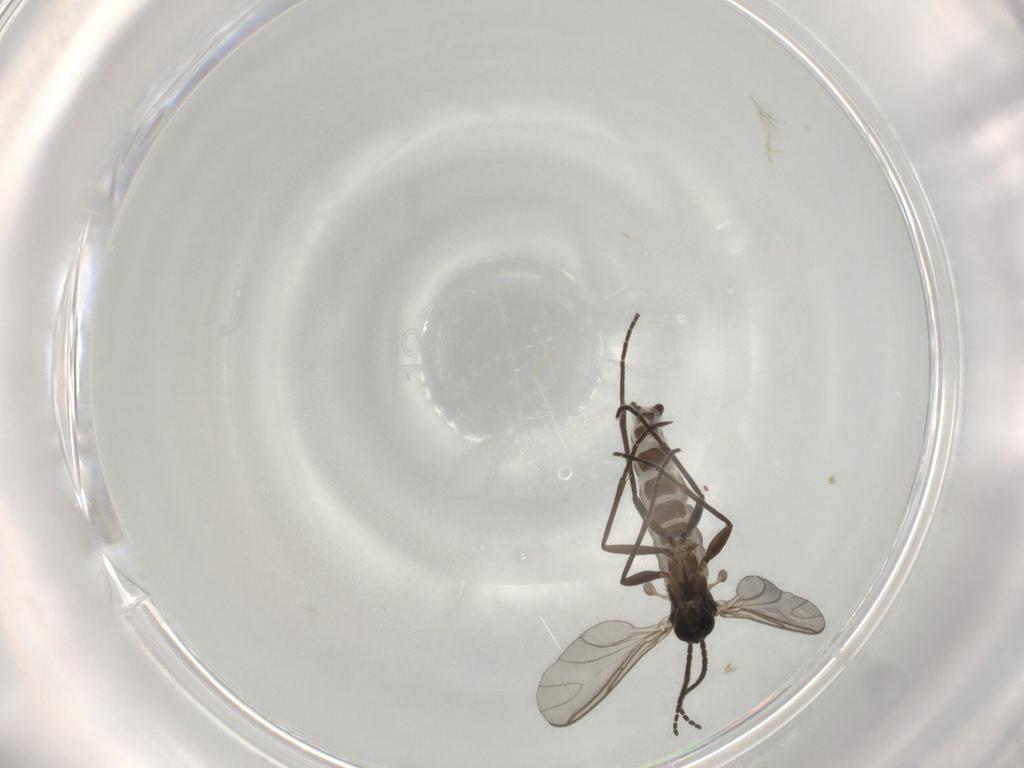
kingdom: Animalia
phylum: Arthropoda
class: Insecta
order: Diptera
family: Sciaridae
